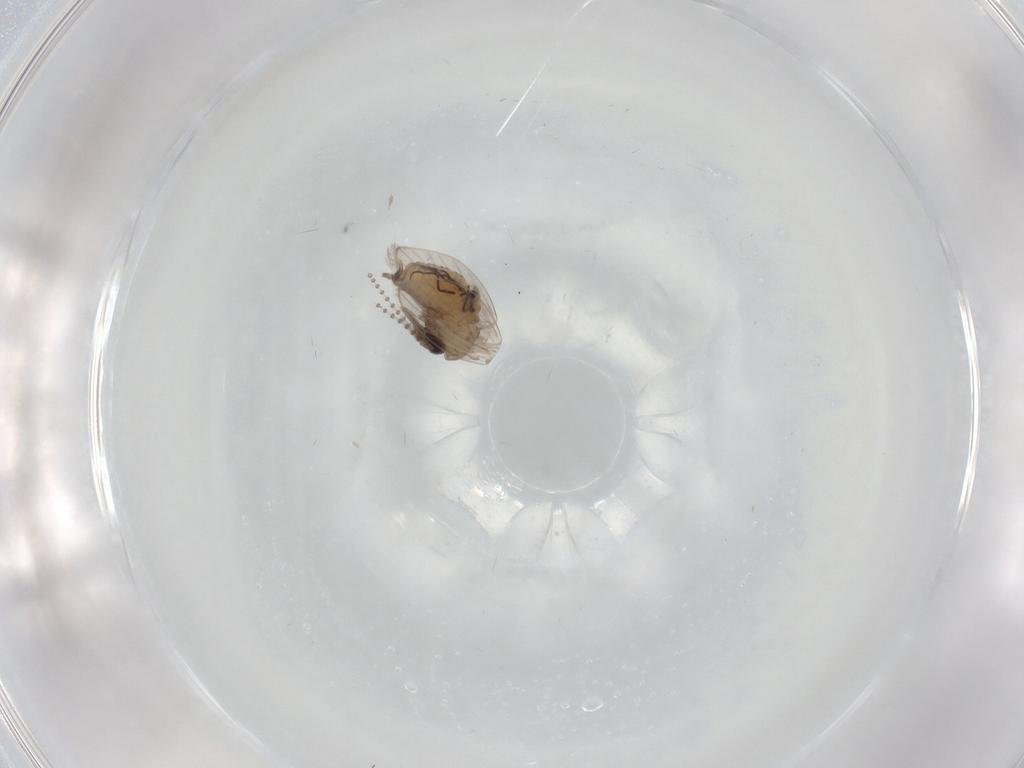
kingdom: Animalia
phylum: Arthropoda
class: Insecta
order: Diptera
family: Psychodidae
